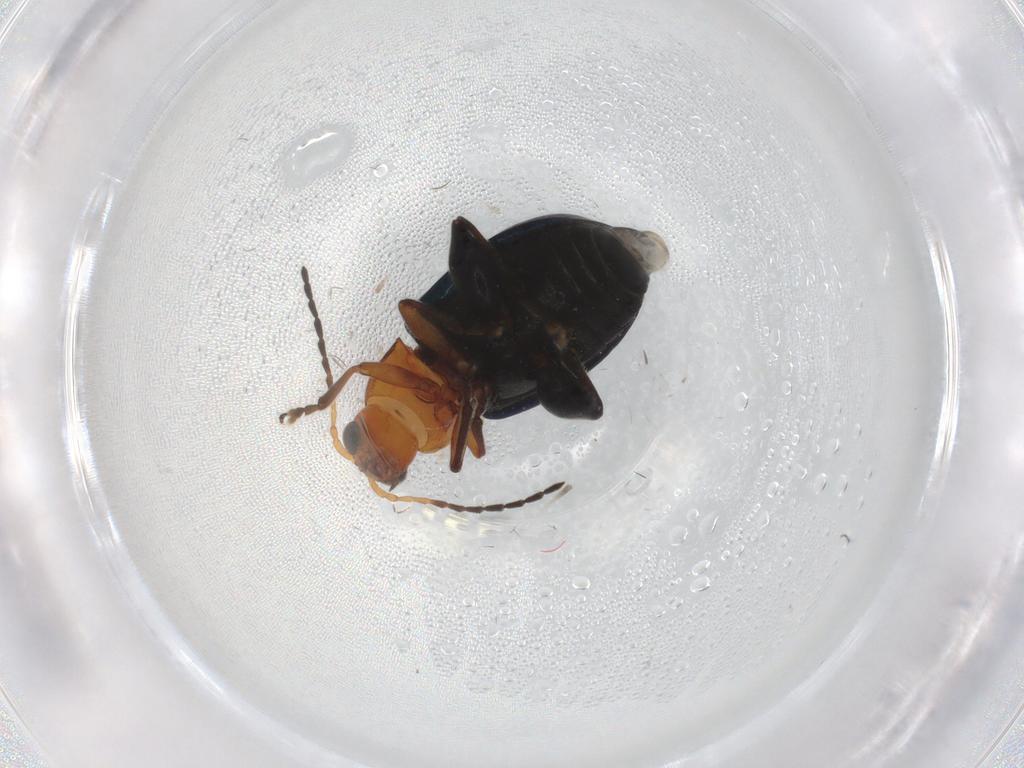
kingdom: Animalia
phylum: Arthropoda
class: Insecta
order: Coleoptera
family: Chrysomelidae
